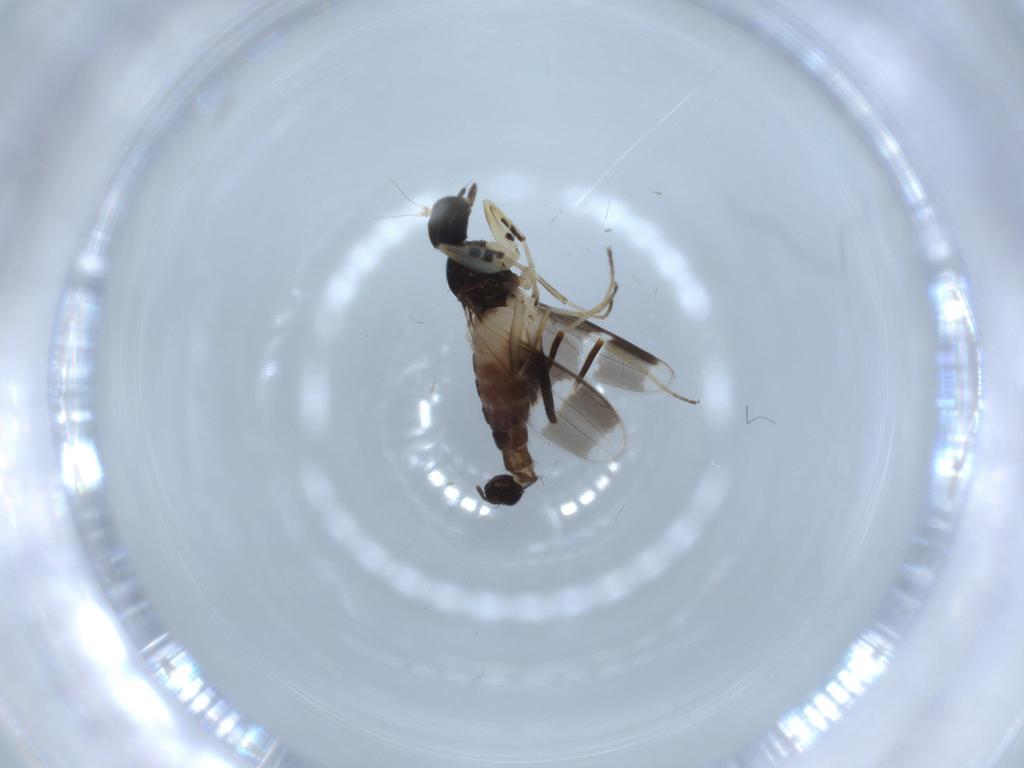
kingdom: Animalia
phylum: Arthropoda
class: Insecta
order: Diptera
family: Hybotidae
